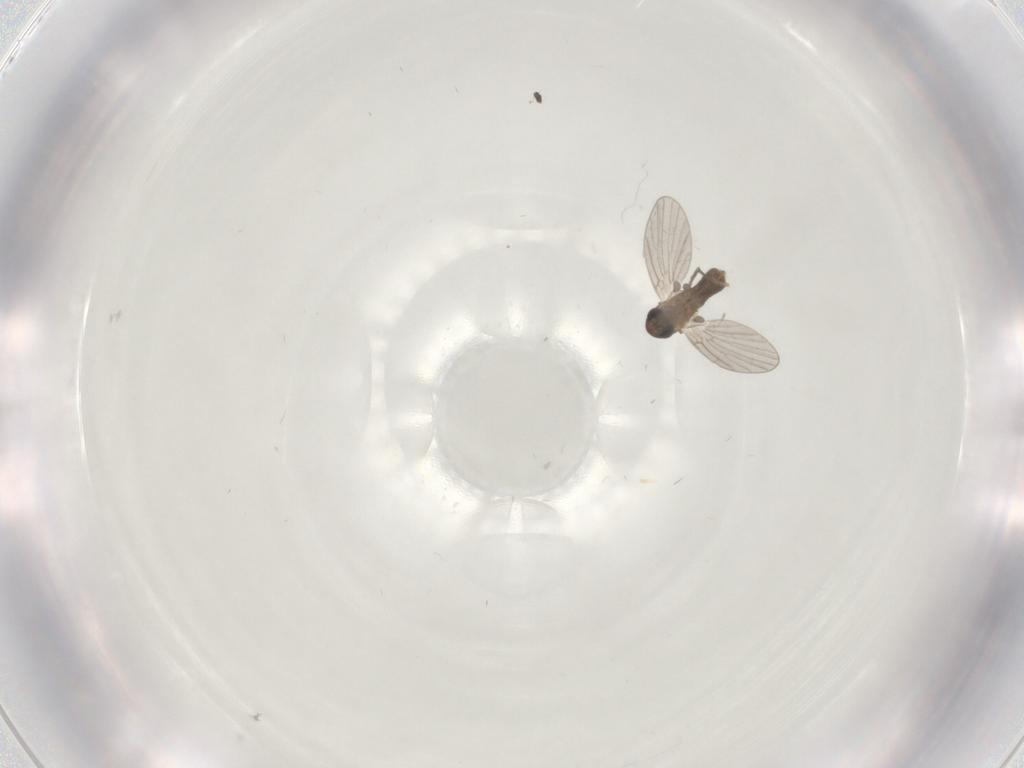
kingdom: Animalia
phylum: Arthropoda
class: Insecta
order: Diptera
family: Psychodidae
